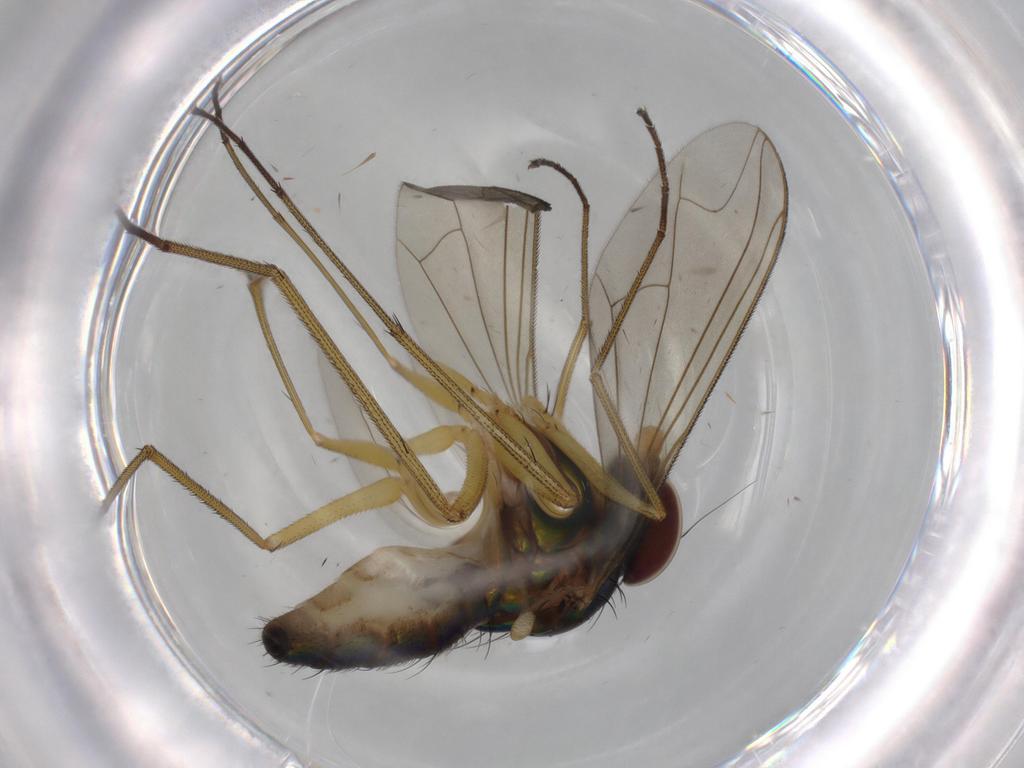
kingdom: Animalia
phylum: Arthropoda
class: Insecta
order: Diptera
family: Dolichopodidae
